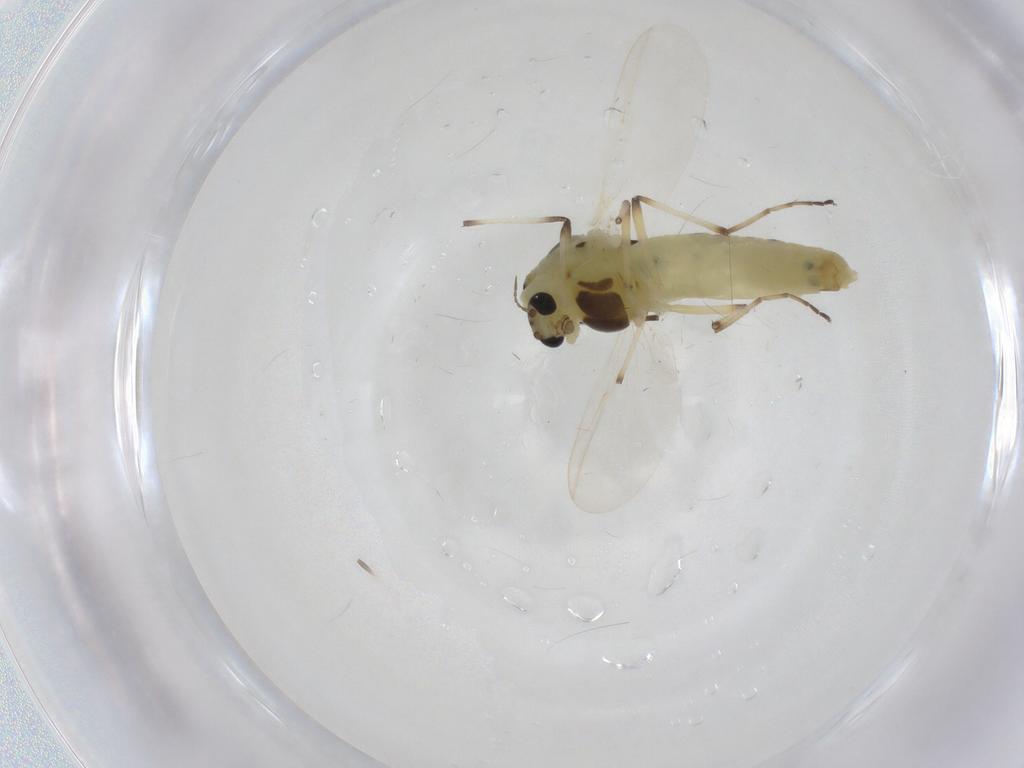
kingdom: Animalia
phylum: Arthropoda
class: Insecta
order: Diptera
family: Chironomidae
